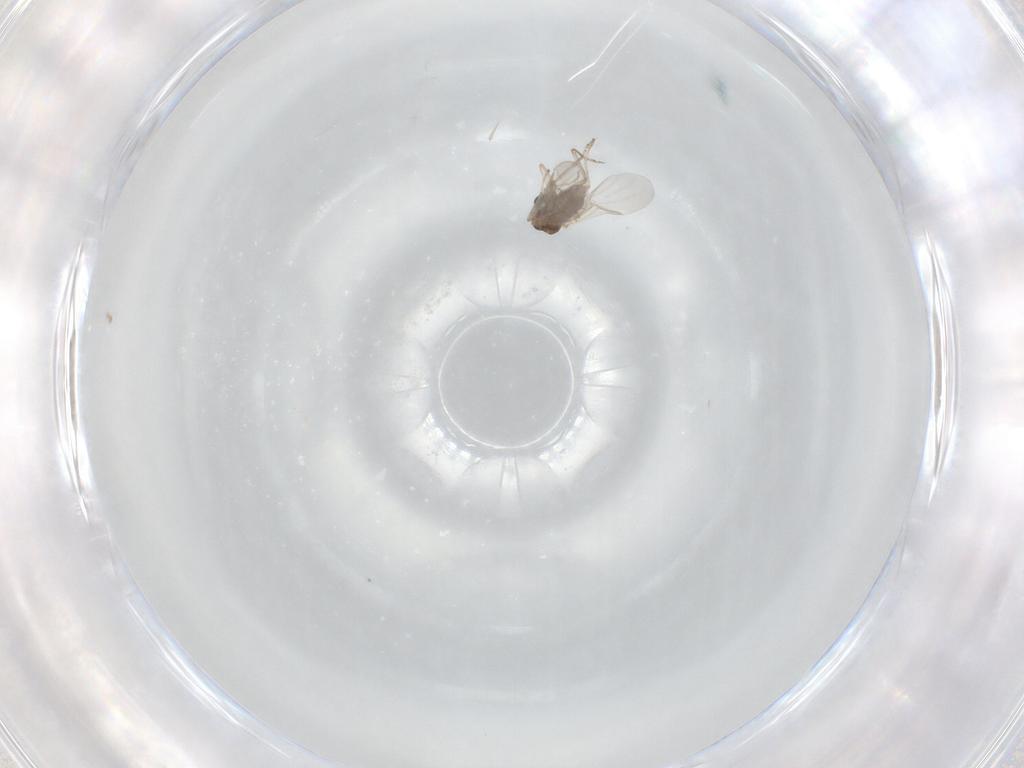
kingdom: Animalia
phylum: Arthropoda
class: Insecta
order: Diptera
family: Ceratopogonidae
